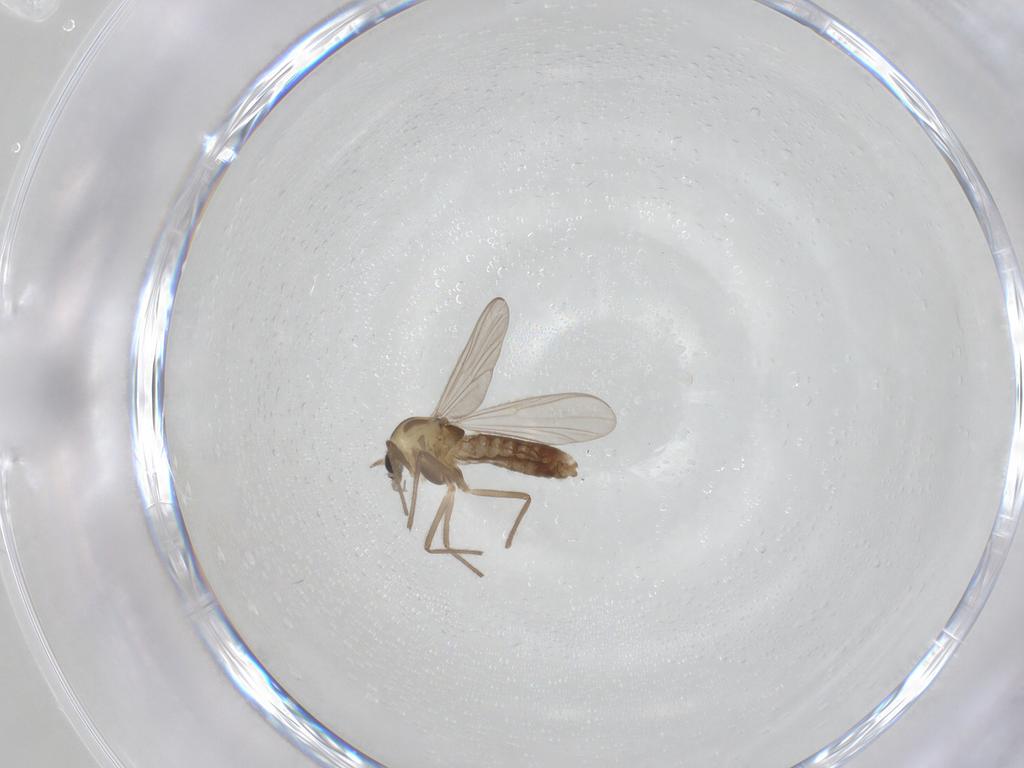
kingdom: Animalia
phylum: Arthropoda
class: Insecta
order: Diptera
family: Chironomidae
